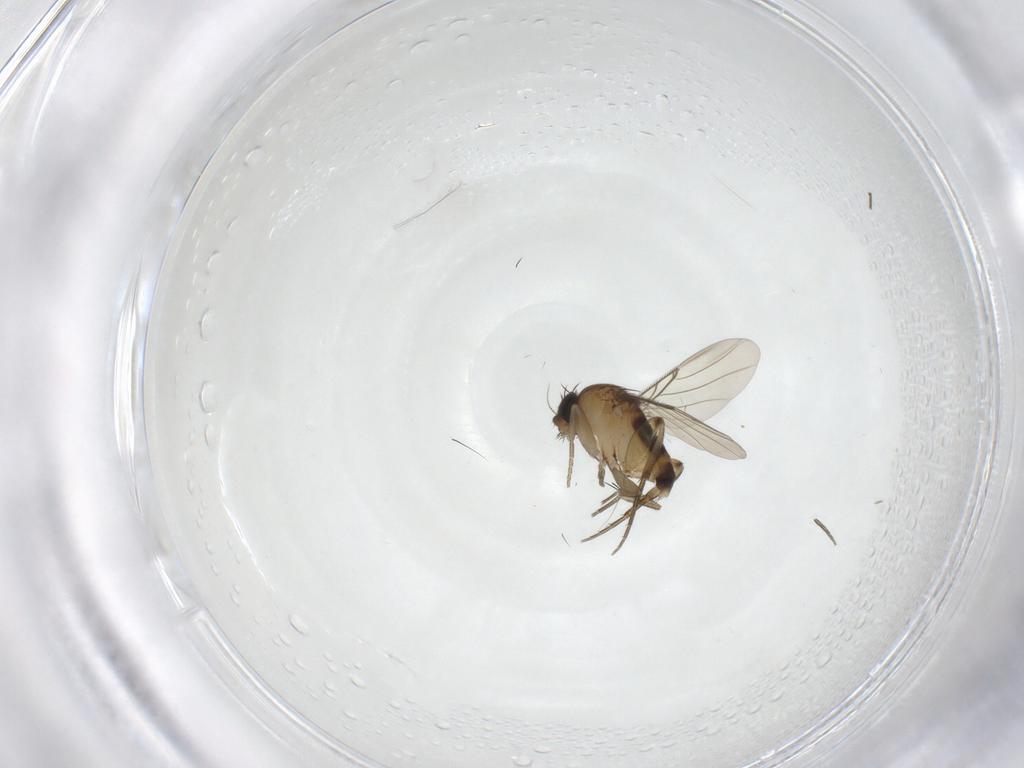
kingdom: Animalia
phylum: Arthropoda
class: Insecta
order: Diptera
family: Cecidomyiidae
